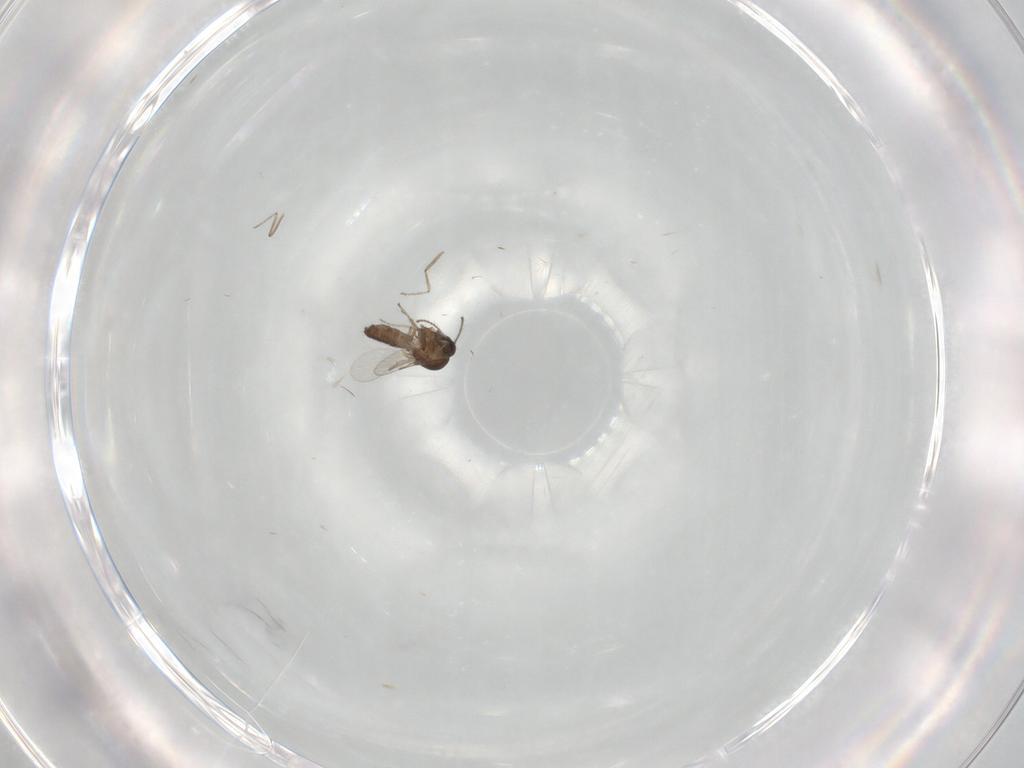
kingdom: Animalia
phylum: Arthropoda
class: Insecta
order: Diptera
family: Ceratopogonidae
